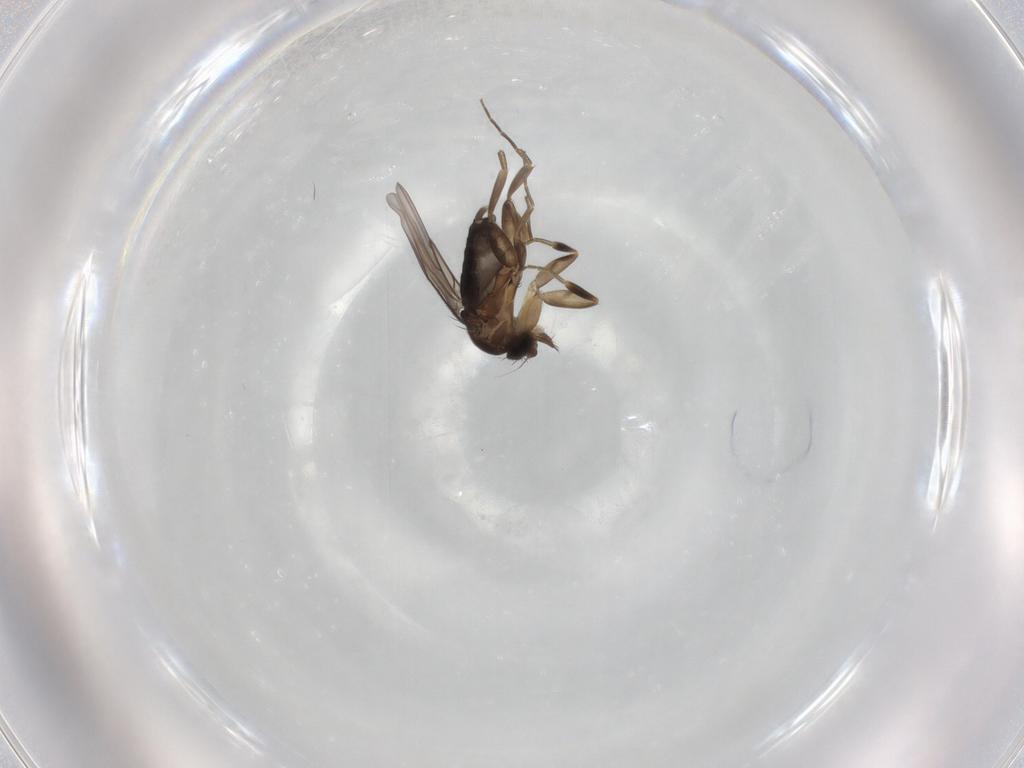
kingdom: Animalia
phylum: Arthropoda
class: Insecta
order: Diptera
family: Phoridae
